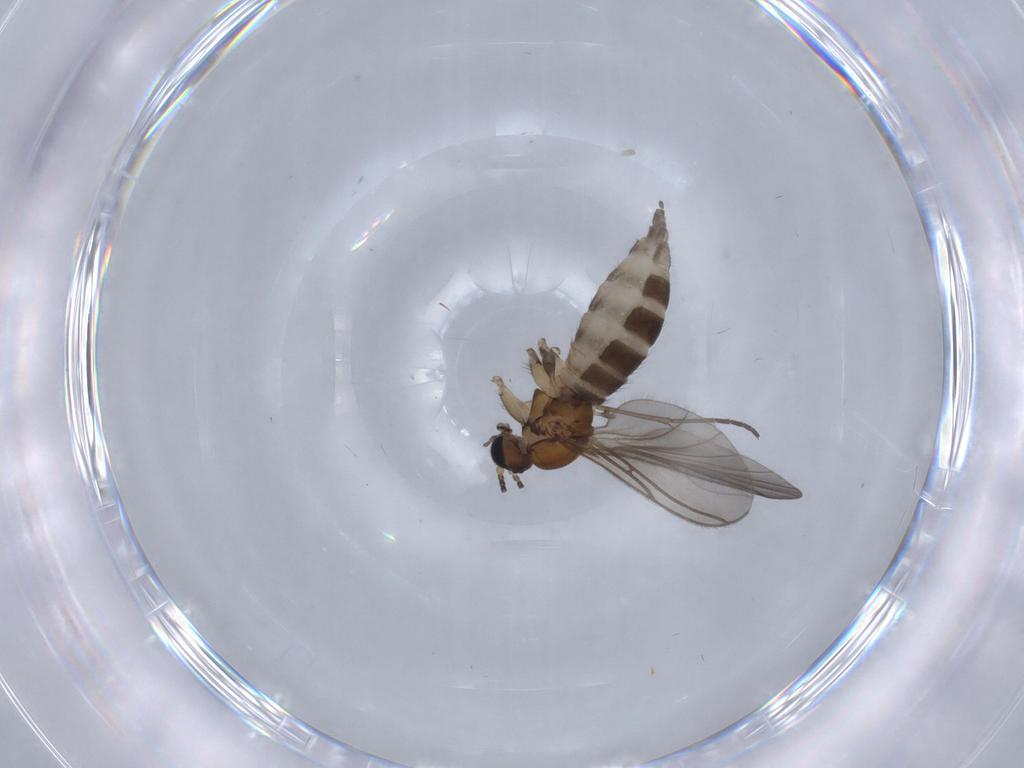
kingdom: Animalia
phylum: Arthropoda
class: Insecta
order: Diptera
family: Sciaridae
